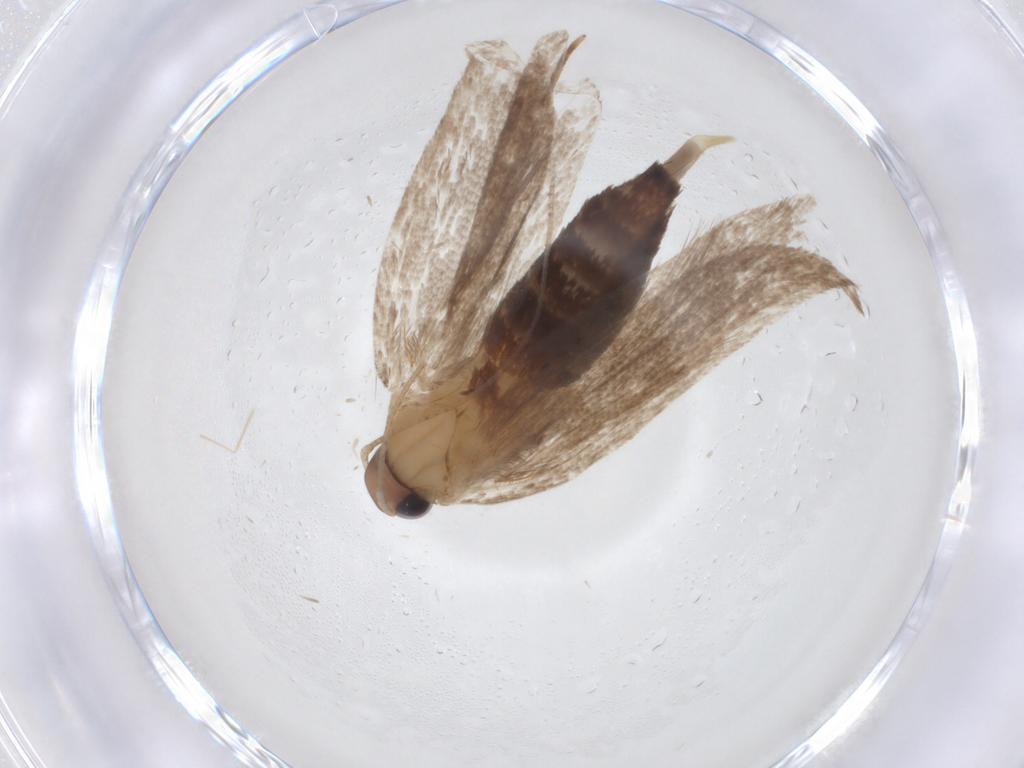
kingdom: Animalia
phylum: Arthropoda
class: Insecta
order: Lepidoptera
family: Oecophoridae
